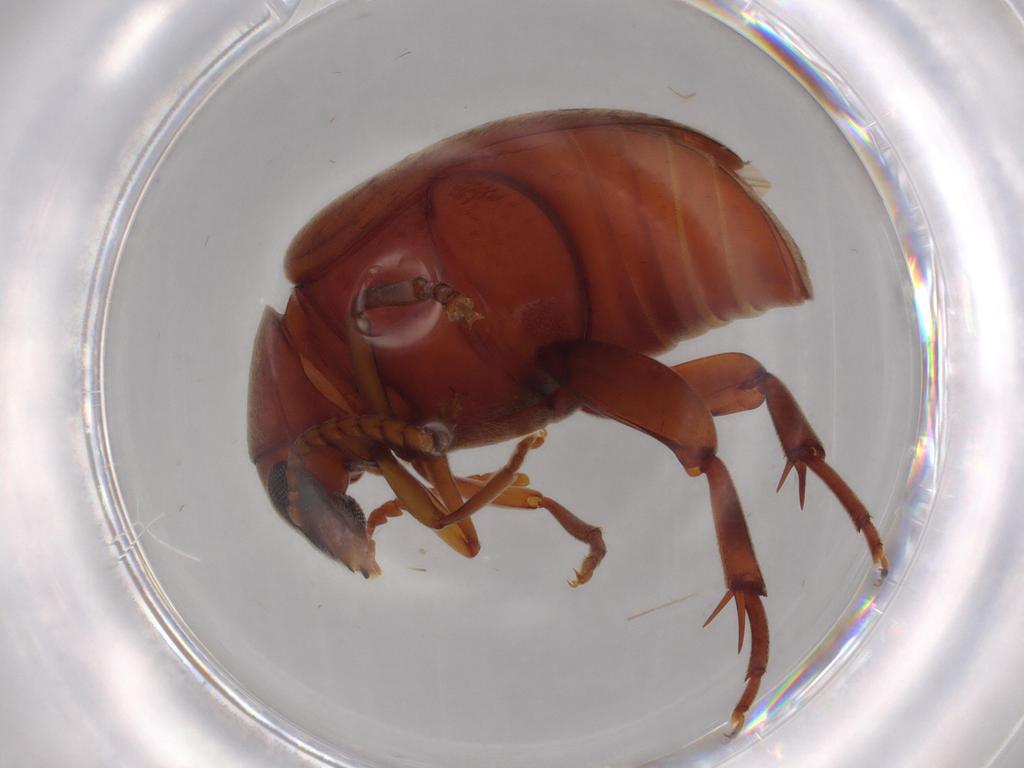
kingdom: Animalia
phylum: Arthropoda
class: Insecta
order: Coleoptera
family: Chrysomelidae
